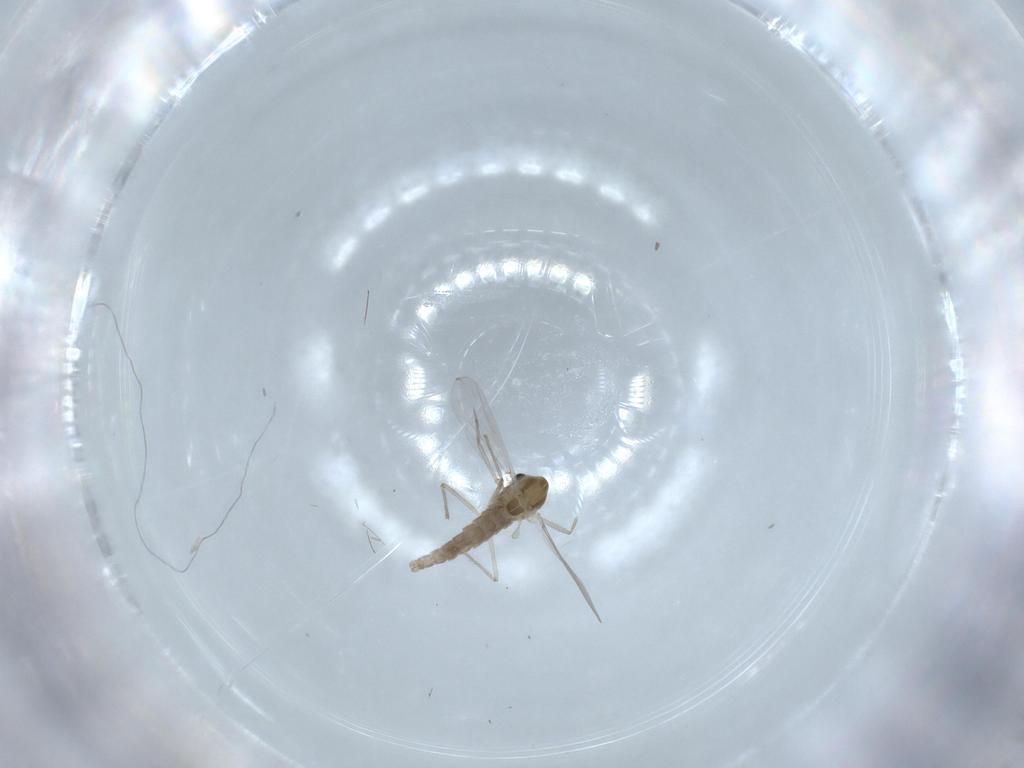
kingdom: Animalia
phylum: Arthropoda
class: Insecta
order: Diptera
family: Chironomidae
